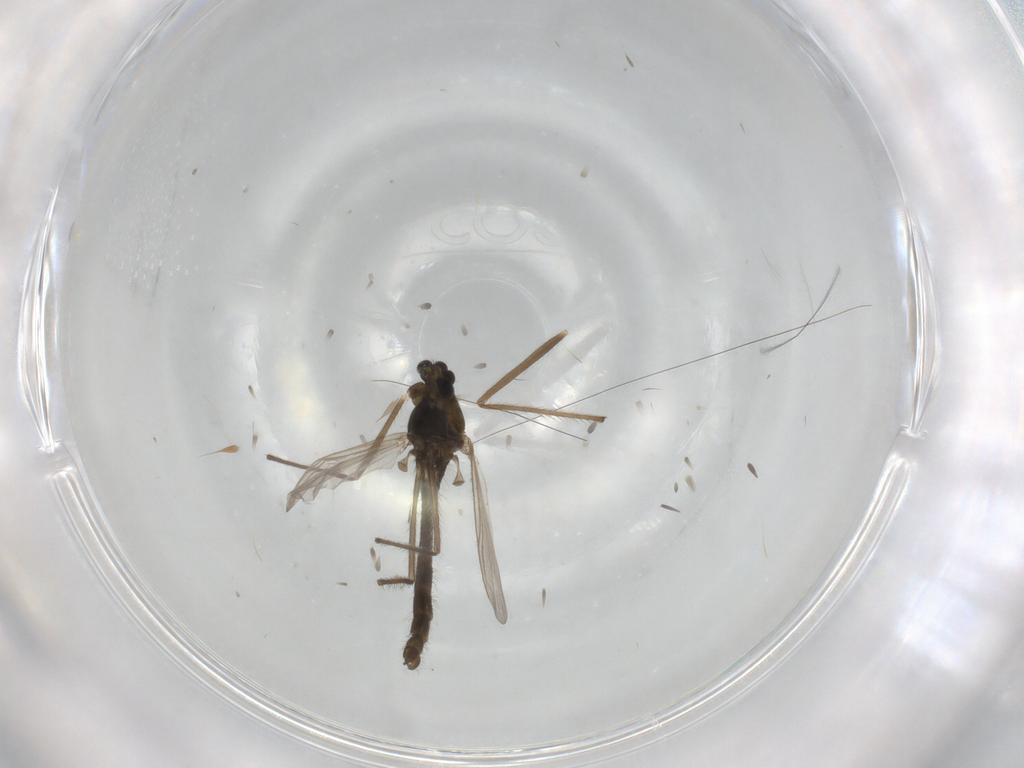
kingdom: Animalia
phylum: Arthropoda
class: Insecta
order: Diptera
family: Chironomidae
